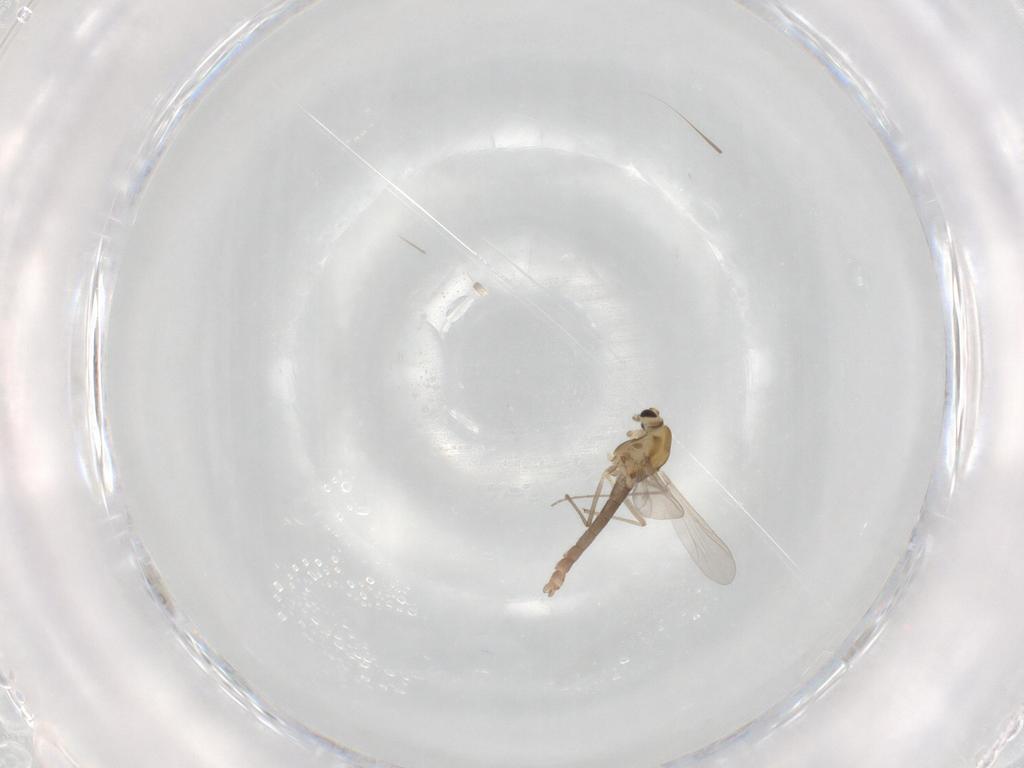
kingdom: Animalia
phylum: Arthropoda
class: Insecta
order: Diptera
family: Chironomidae
